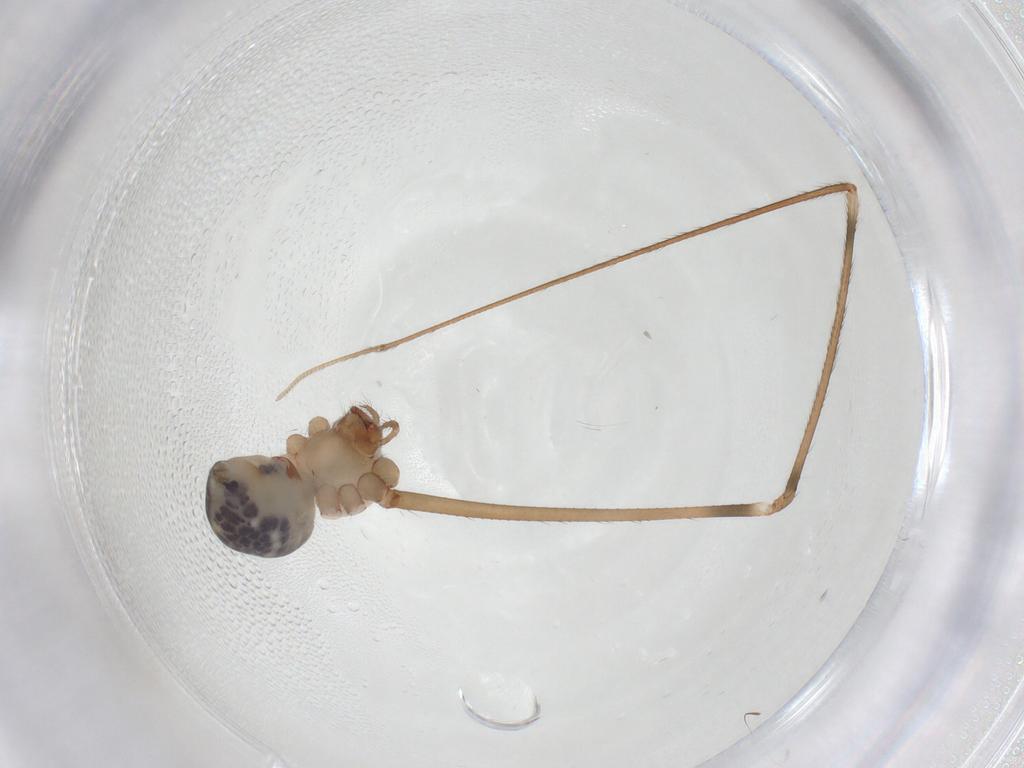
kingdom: Animalia
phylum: Arthropoda
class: Arachnida
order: Araneae
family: Pholcidae
